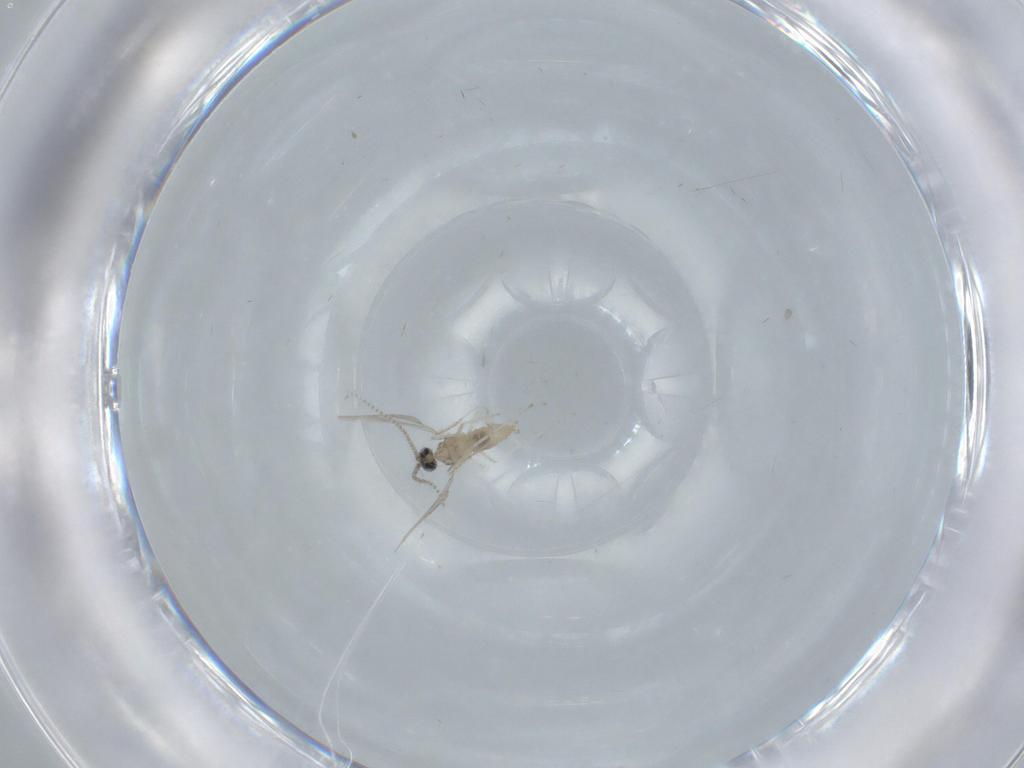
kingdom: Animalia
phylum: Arthropoda
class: Insecta
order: Diptera
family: Cecidomyiidae
